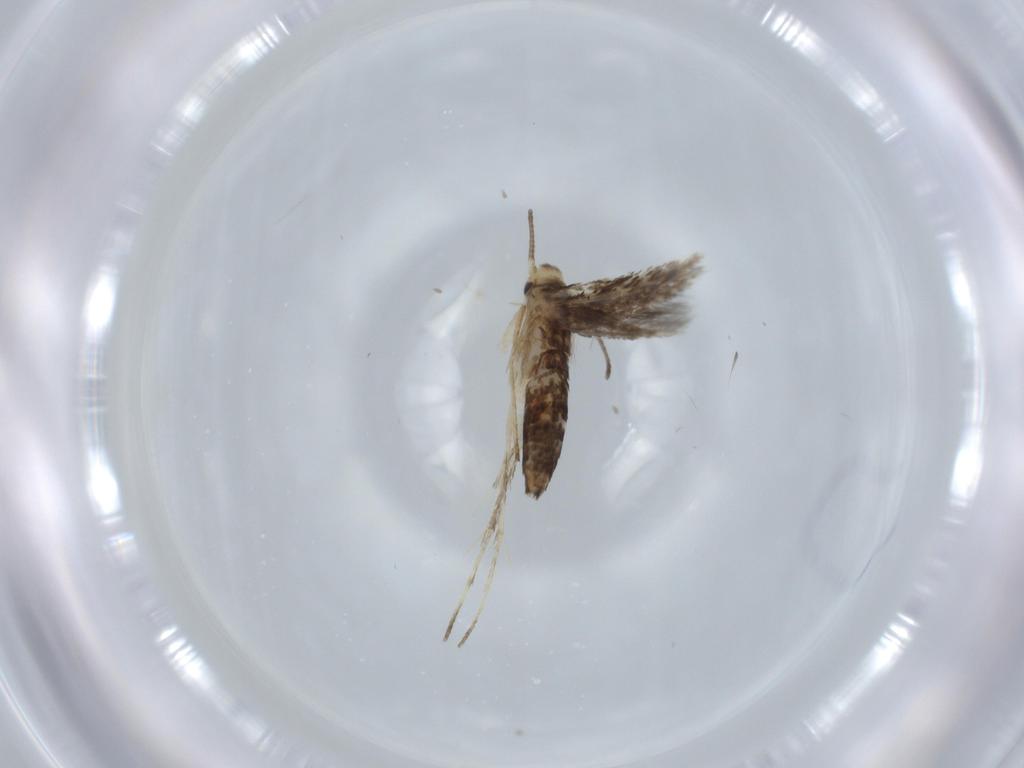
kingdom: Animalia
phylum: Arthropoda
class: Insecta
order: Lepidoptera
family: Nepticulidae
